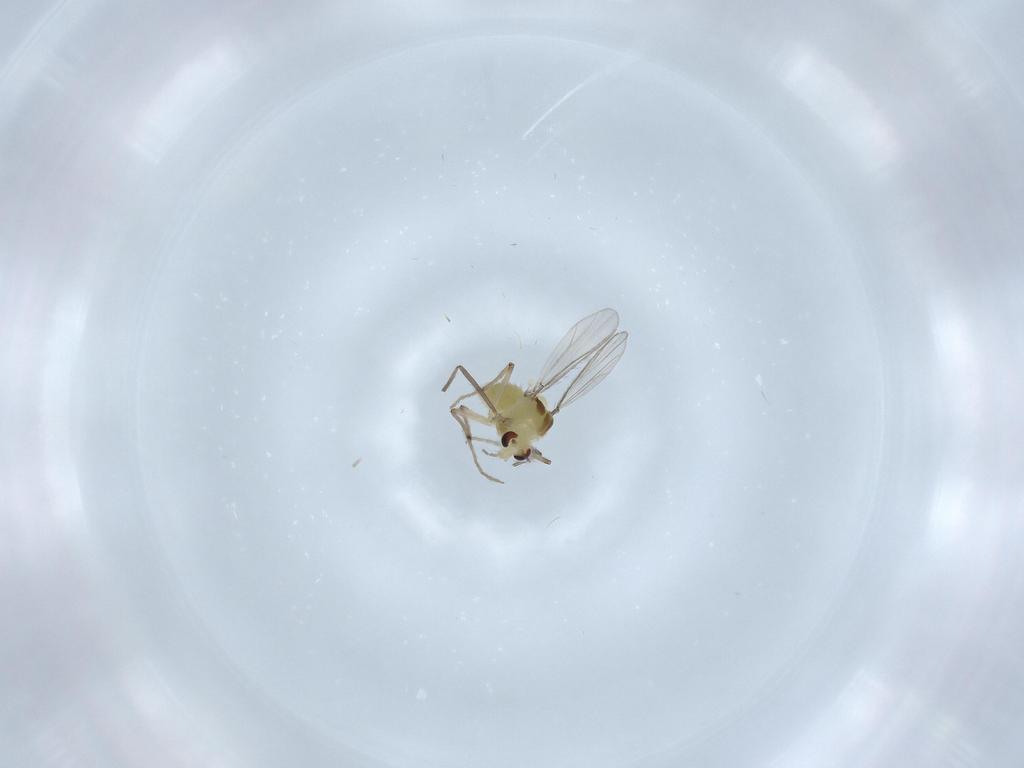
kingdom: Animalia
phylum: Arthropoda
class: Insecta
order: Diptera
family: Chironomidae
